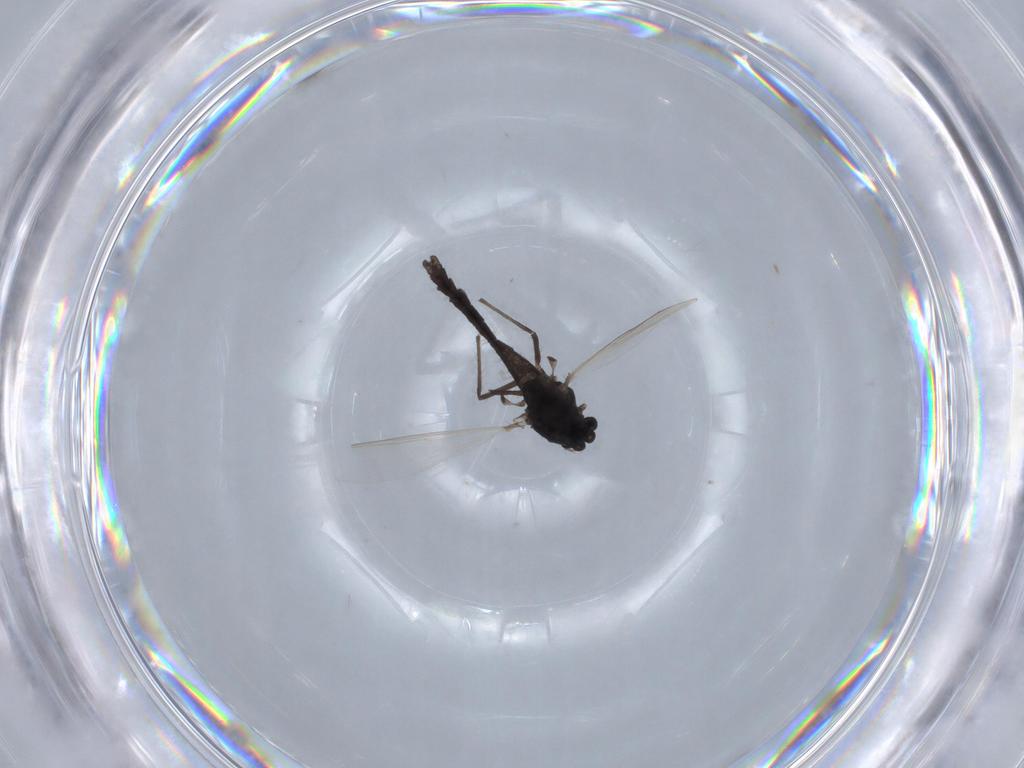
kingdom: Animalia
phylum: Arthropoda
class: Insecta
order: Diptera
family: Chironomidae
